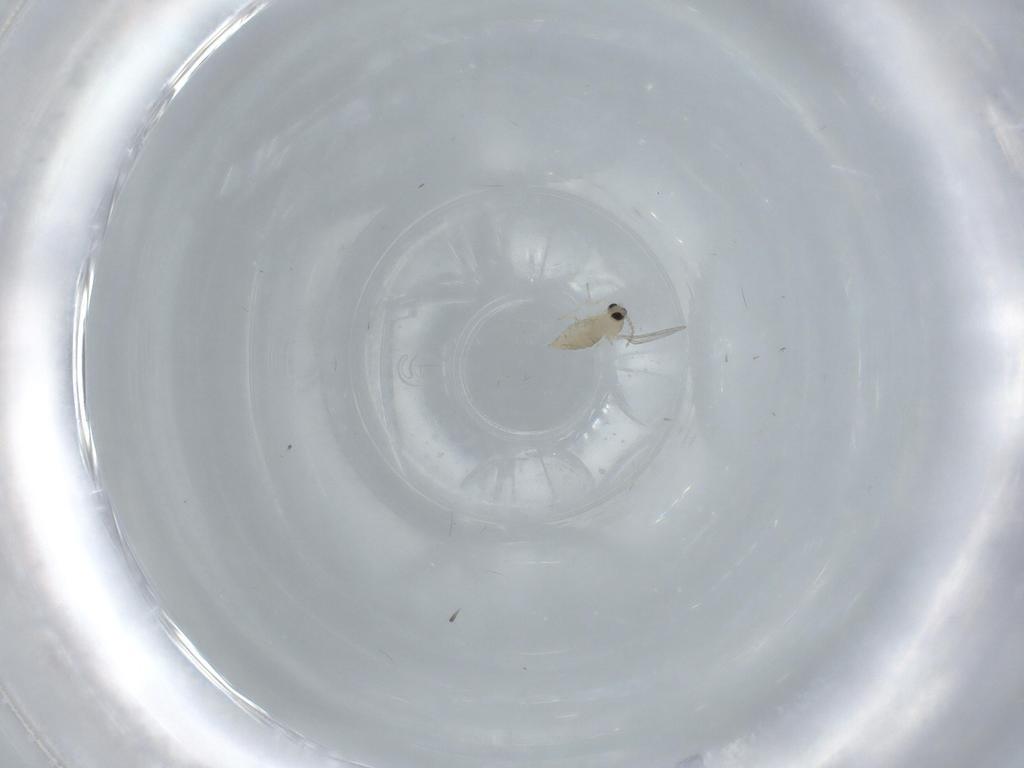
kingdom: Animalia
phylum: Arthropoda
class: Insecta
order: Diptera
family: Cecidomyiidae
